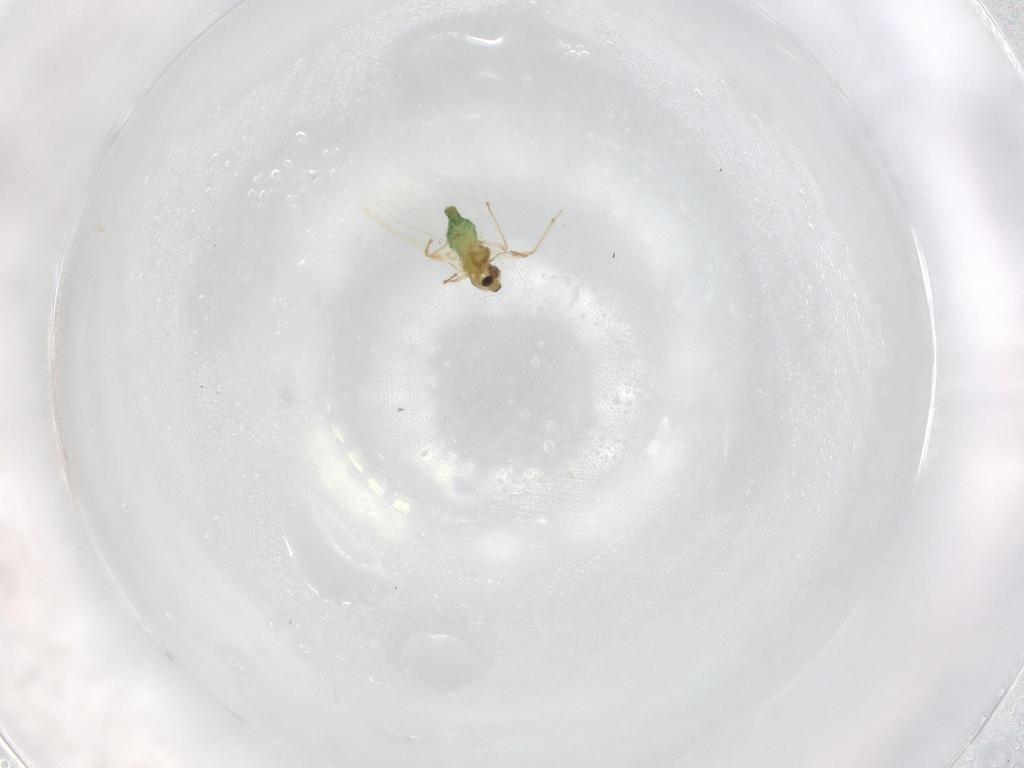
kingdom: Animalia
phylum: Arthropoda
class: Insecta
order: Diptera
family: Chironomidae
